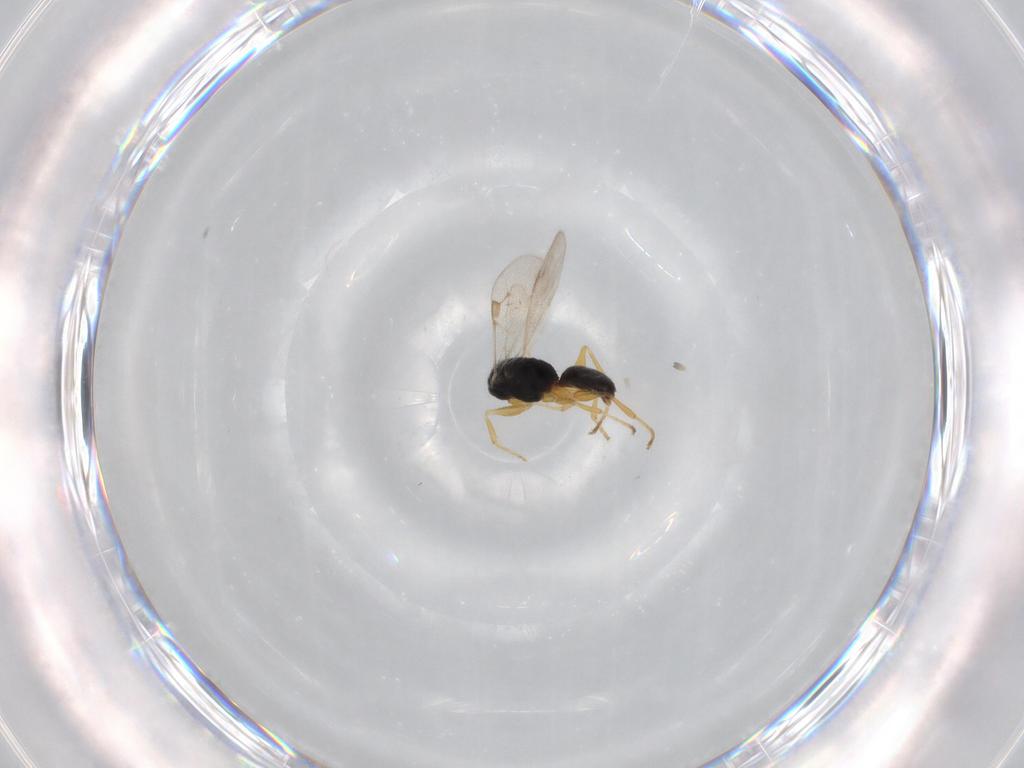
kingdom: Animalia
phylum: Arthropoda
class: Insecta
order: Hymenoptera
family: Dryinidae
